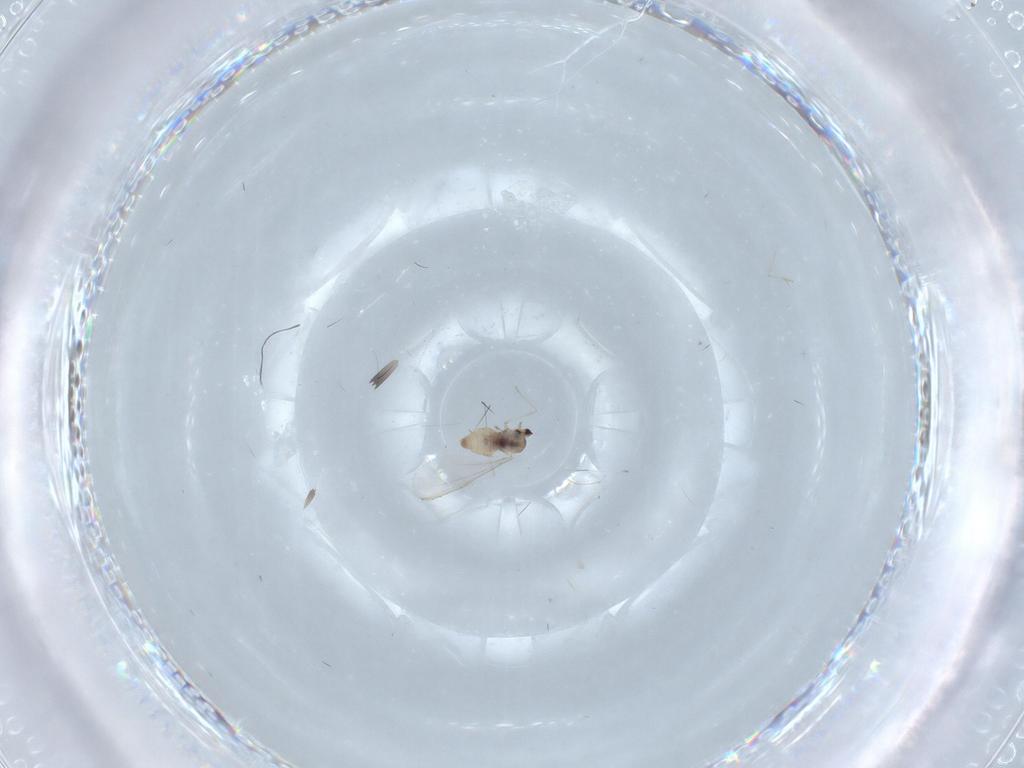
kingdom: Animalia
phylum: Arthropoda
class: Insecta
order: Diptera
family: Cecidomyiidae
